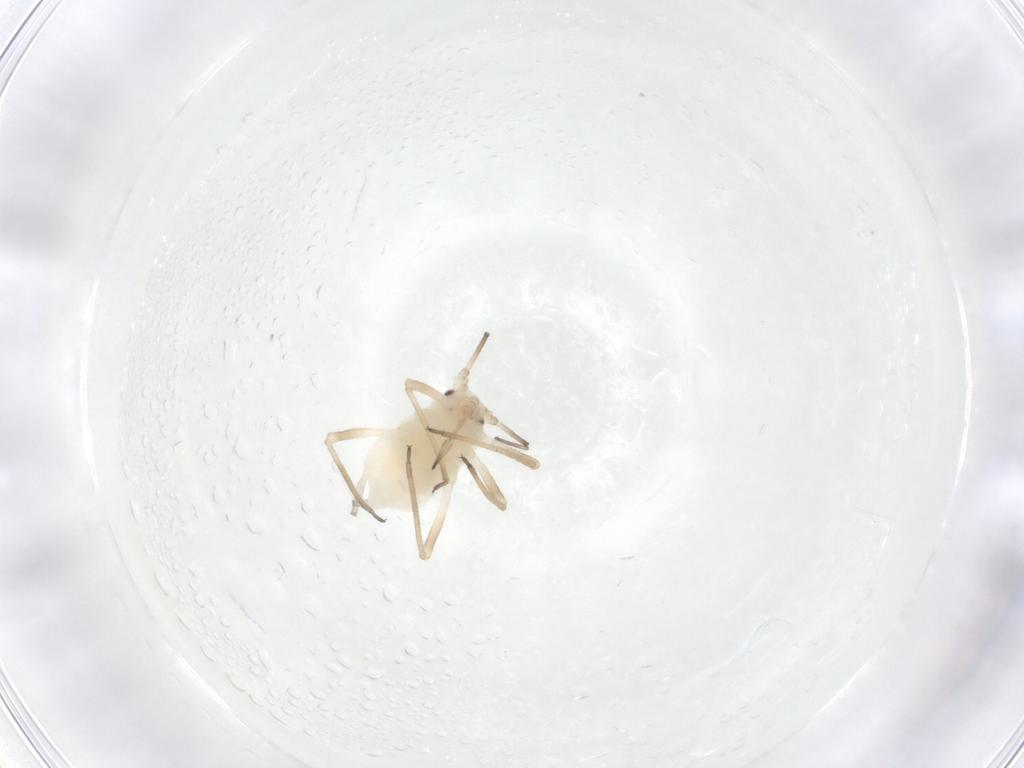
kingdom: Animalia
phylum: Arthropoda
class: Insecta
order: Hemiptera
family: Aphididae
